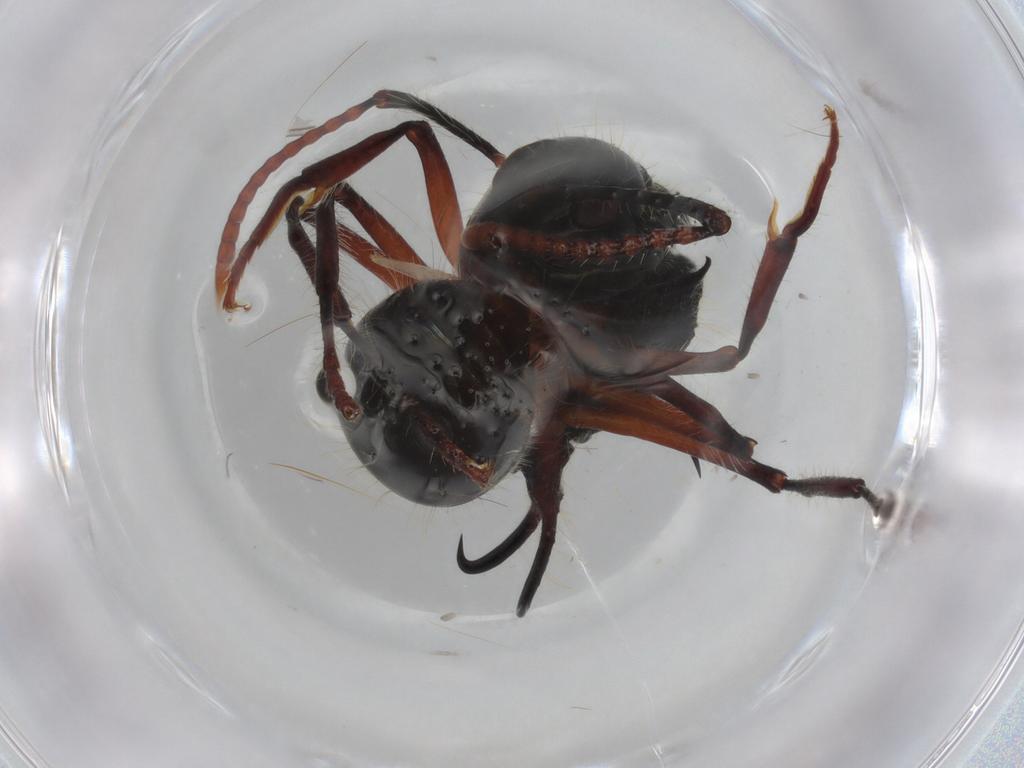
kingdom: Animalia
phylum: Arthropoda
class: Insecta
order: Hymenoptera
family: Formicidae
